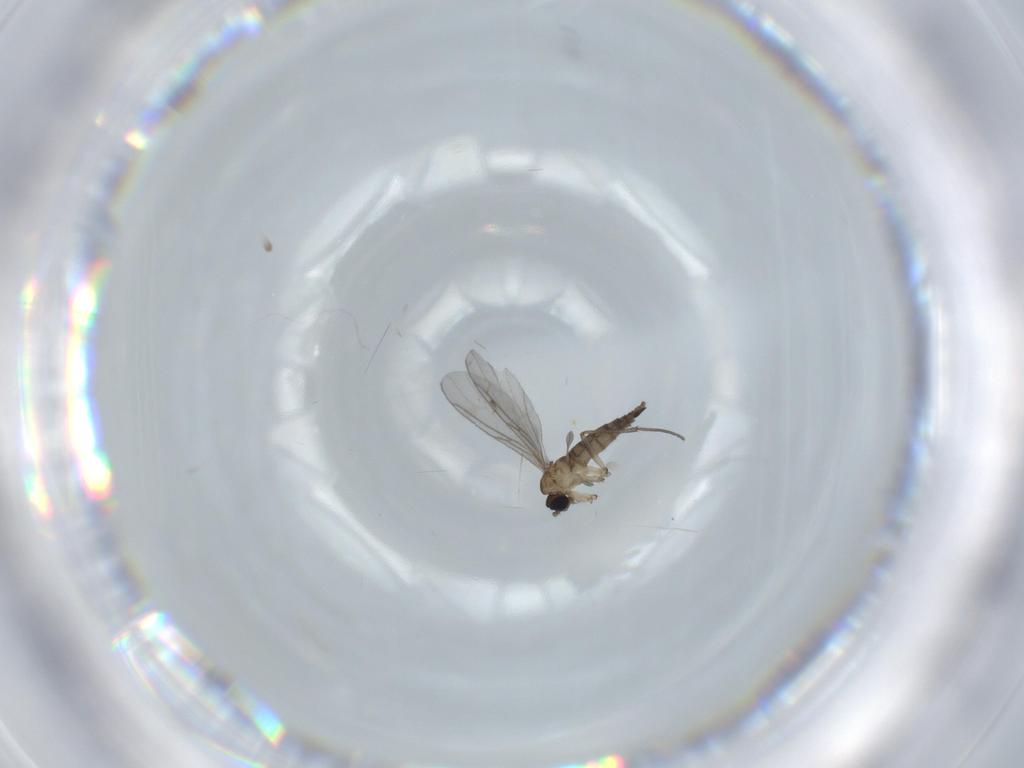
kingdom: Animalia
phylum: Arthropoda
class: Insecta
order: Diptera
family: Sciaridae
